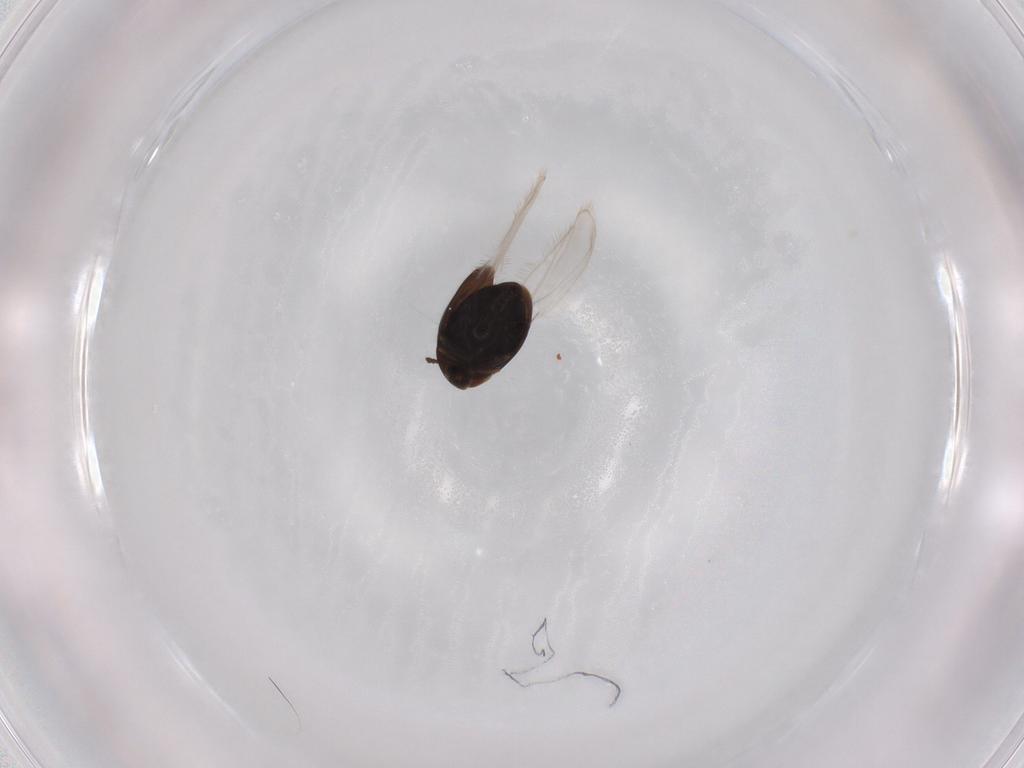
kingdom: Animalia
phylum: Arthropoda
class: Insecta
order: Coleoptera
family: Corylophidae
